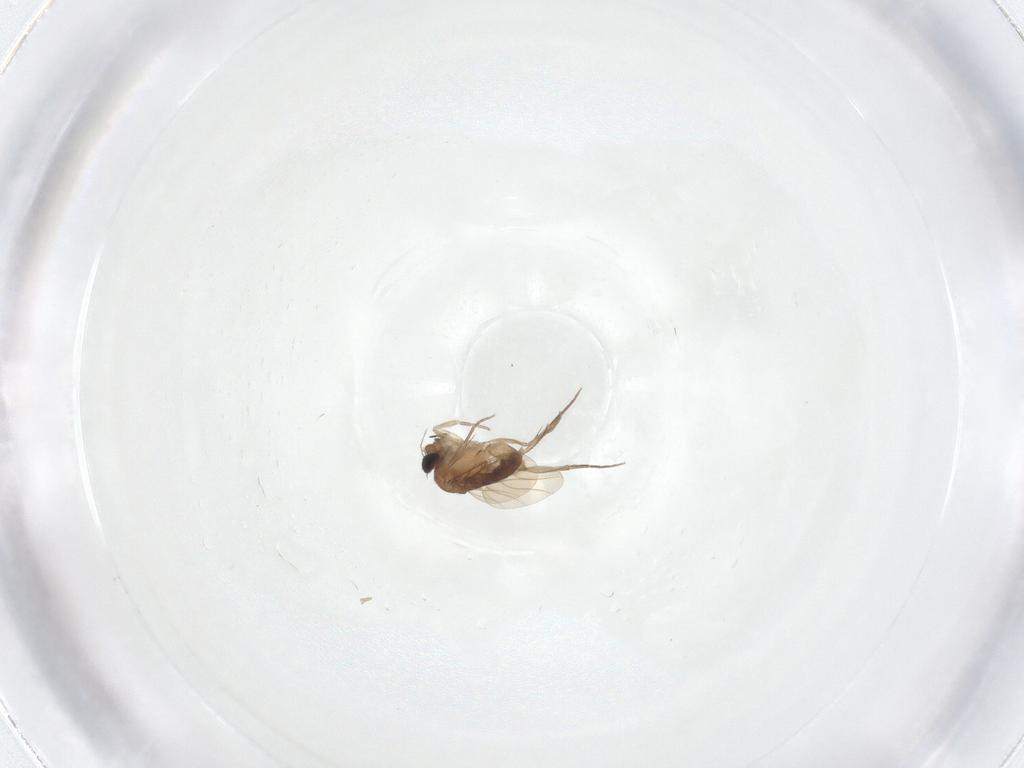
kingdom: Animalia
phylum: Arthropoda
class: Insecta
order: Diptera
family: Phoridae
